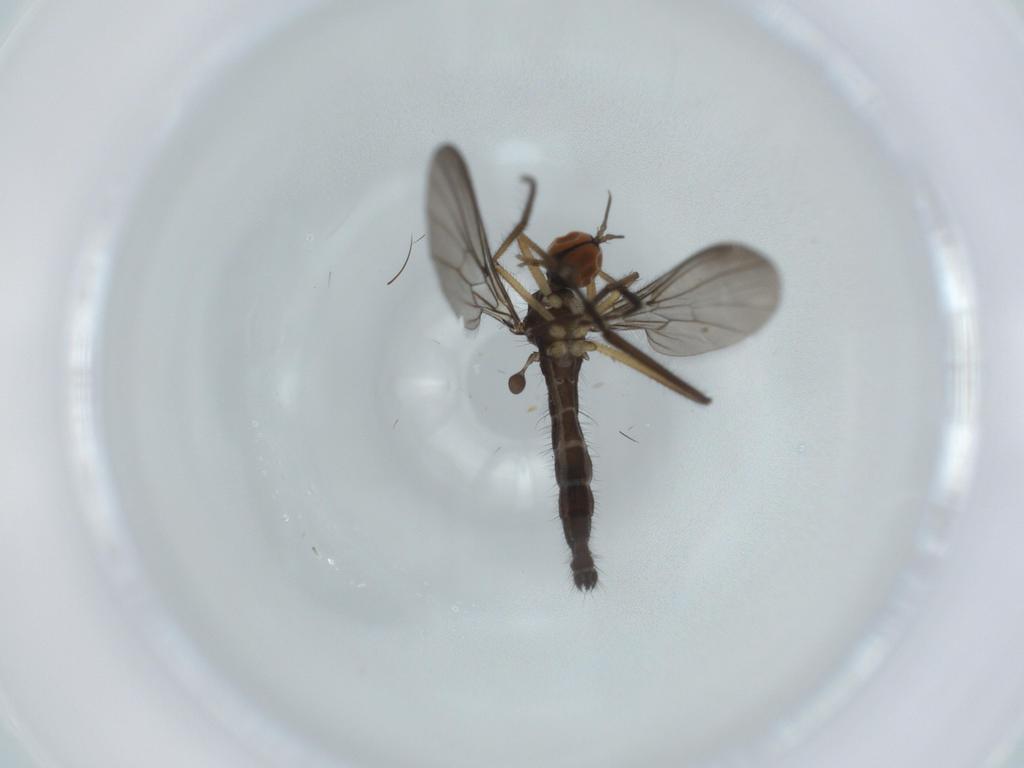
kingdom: Animalia
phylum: Arthropoda
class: Insecta
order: Diptera
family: Empididae
